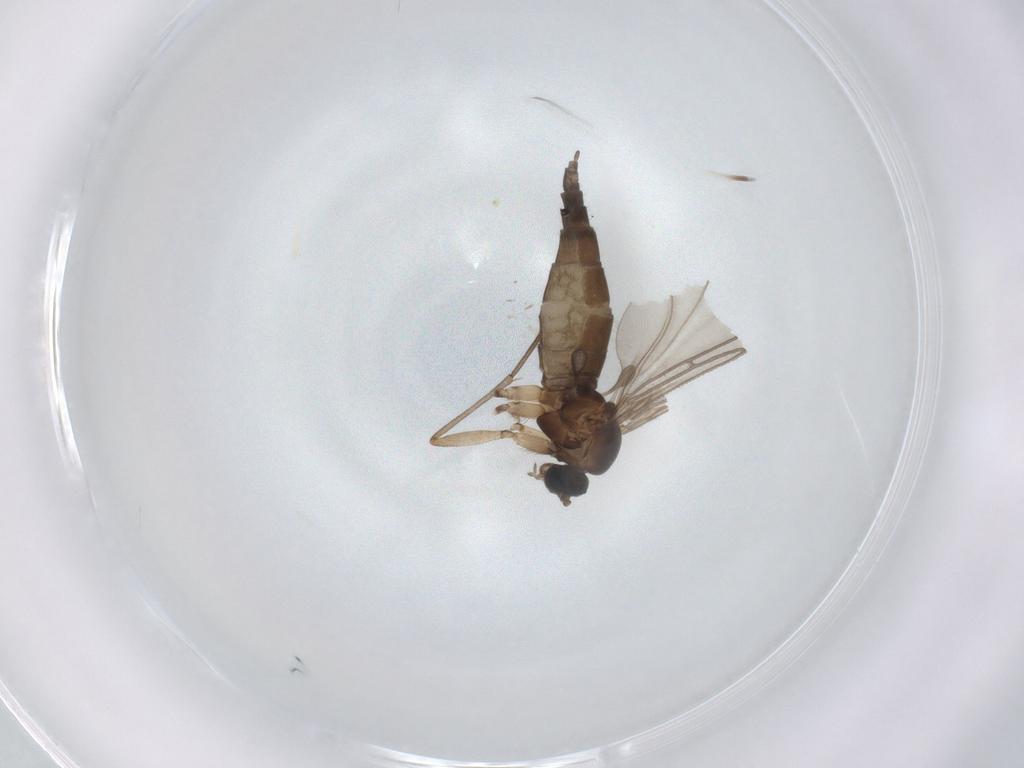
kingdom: Animalia
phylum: Arthropoda
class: Insecta
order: Diptera
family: Sciaridae
